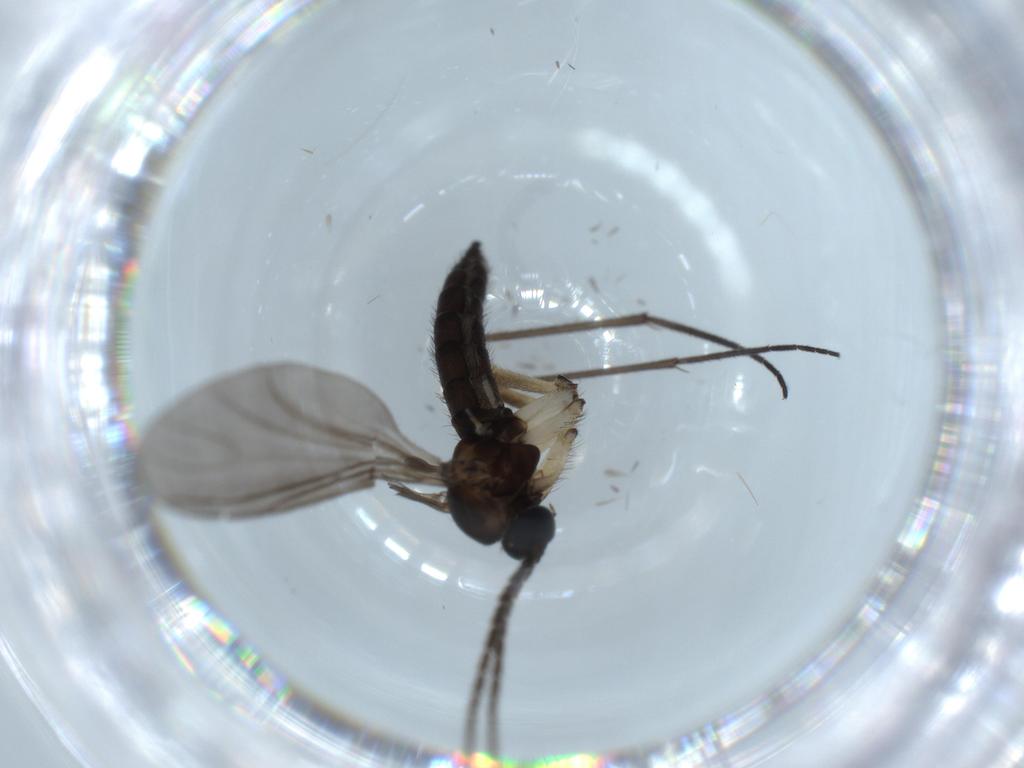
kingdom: Animalia
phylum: Arthropoda
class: Insecta
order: Diptera
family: Sciaridae
